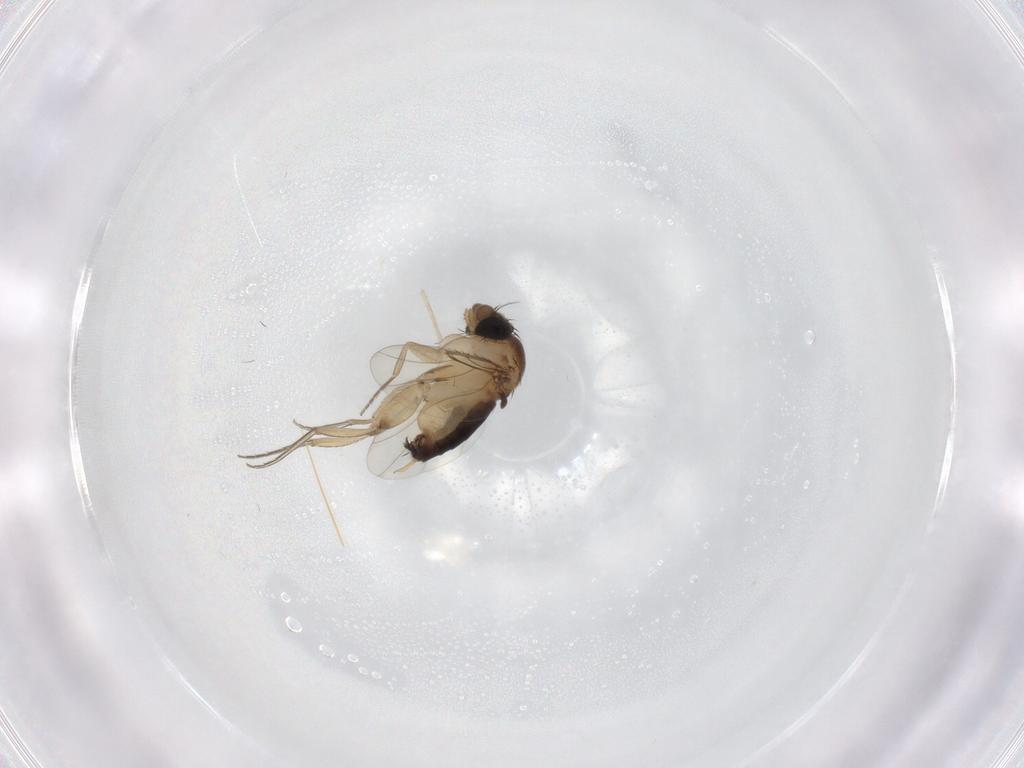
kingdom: Animalia
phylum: Arthropoda
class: Insecta
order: Diptera
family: Phoridae
